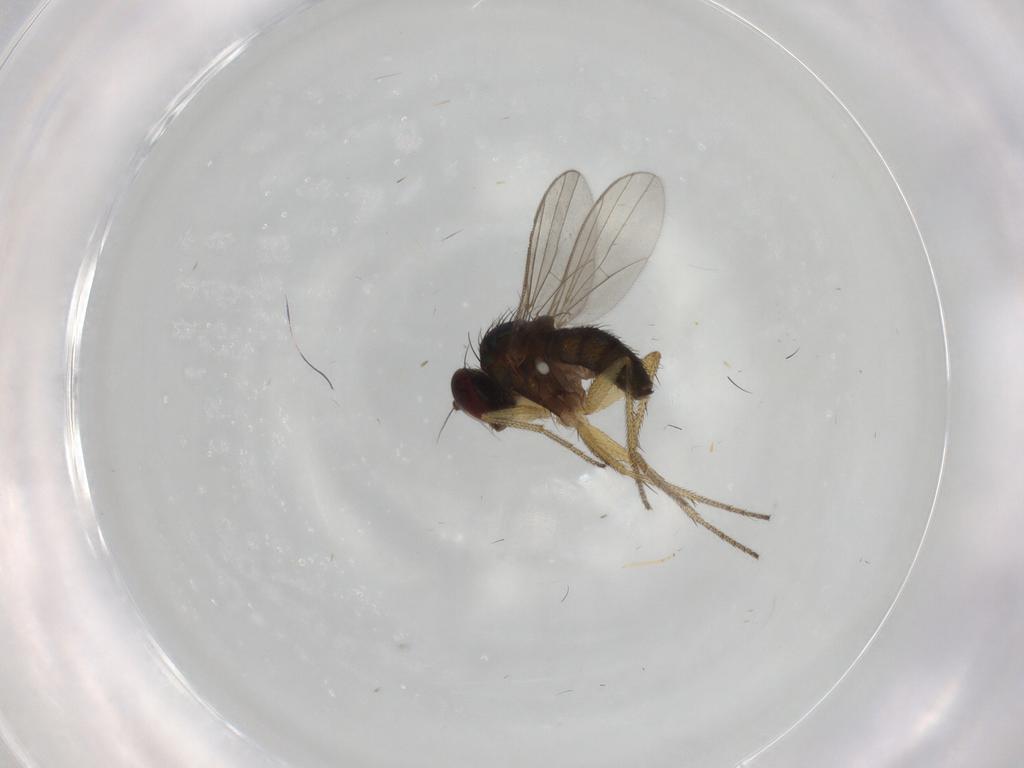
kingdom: Animalia
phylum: Arthropoda
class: Insecta
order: Diptera
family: Dolichopodidae
